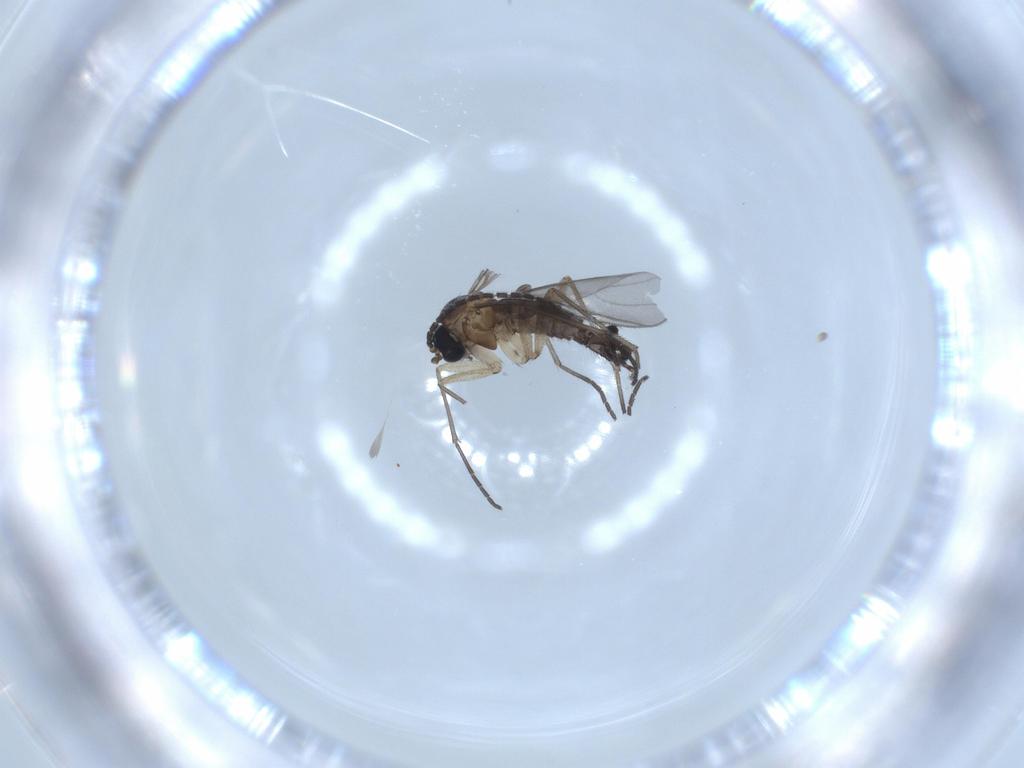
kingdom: Animalia
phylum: Arthropoda
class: Insecta
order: Diptera
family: Sciaridae
